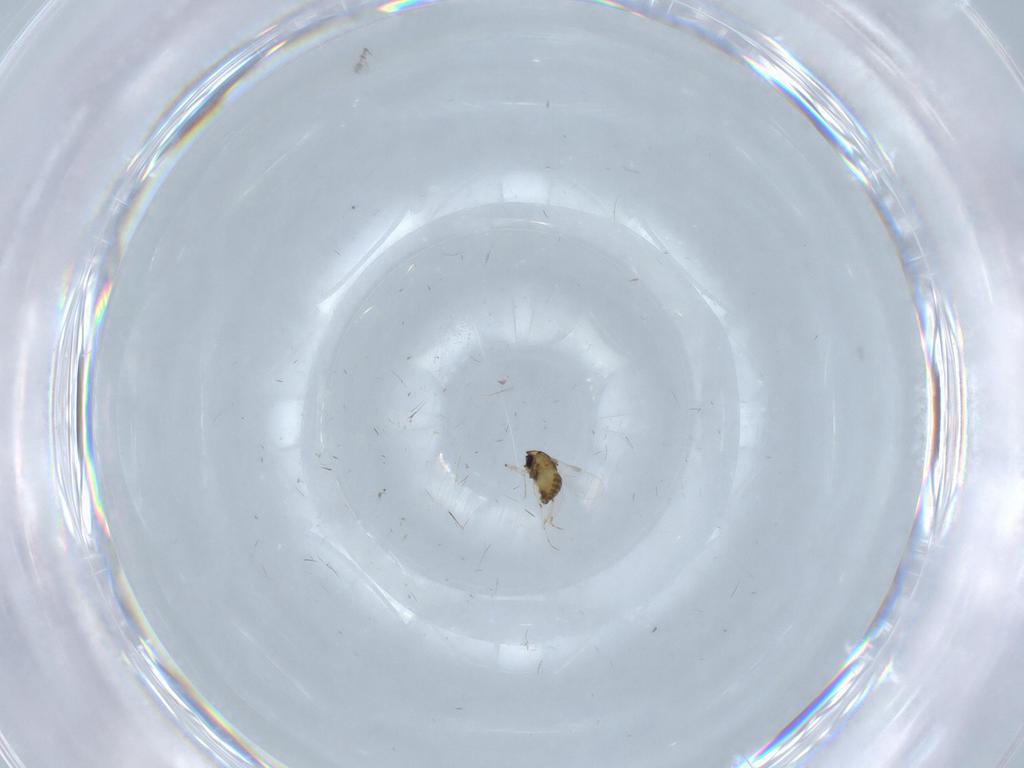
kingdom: Animalia
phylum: Arthropoda
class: Insecta
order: Diptera
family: Chironomidae
